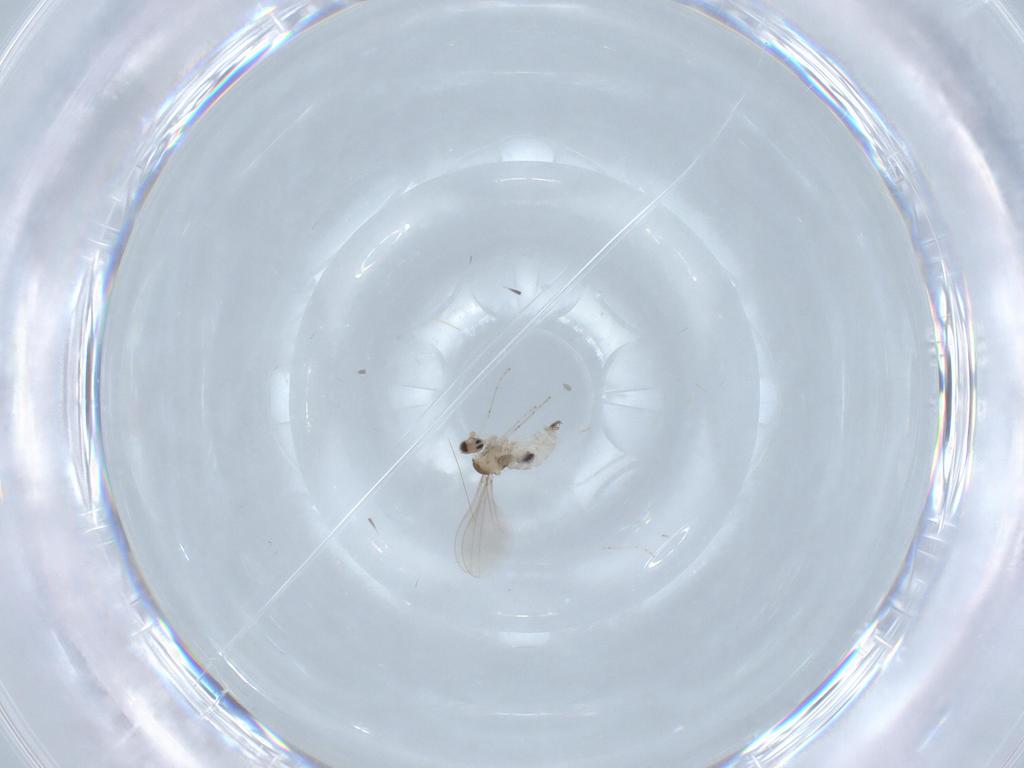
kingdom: Animalia
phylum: Arthropoda
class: Insecta
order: Diptera
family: Cecidomyiidae
